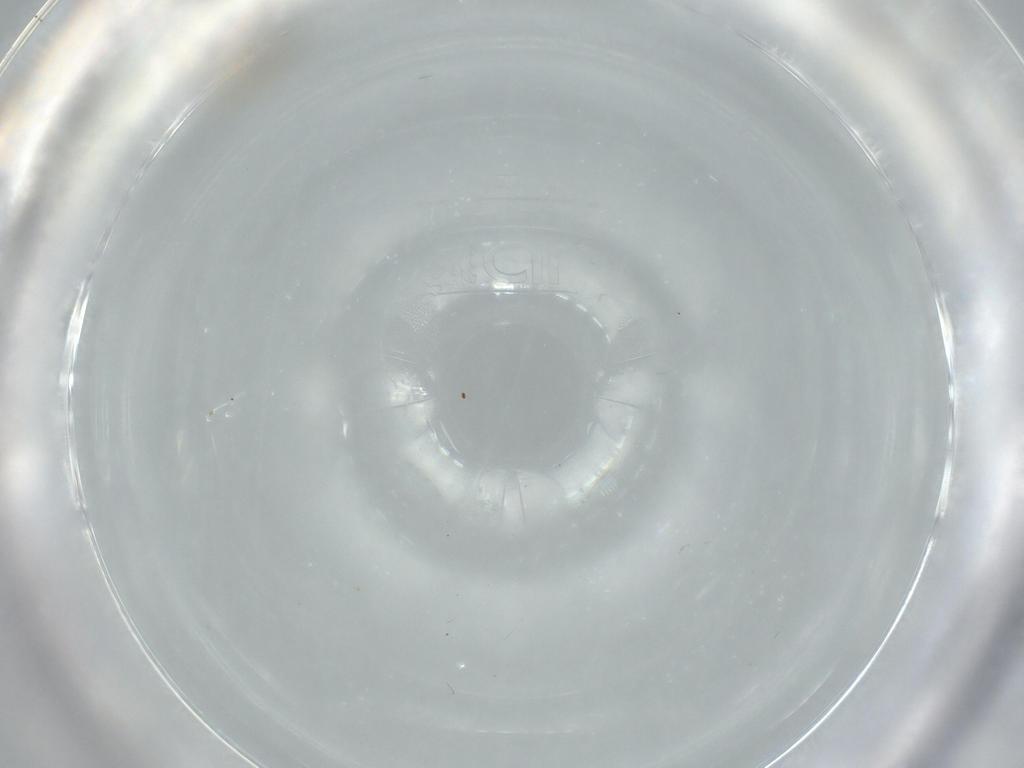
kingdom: Animalia
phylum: Arthropoda
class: Insecta
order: Diptera
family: Cecidomyiidae
